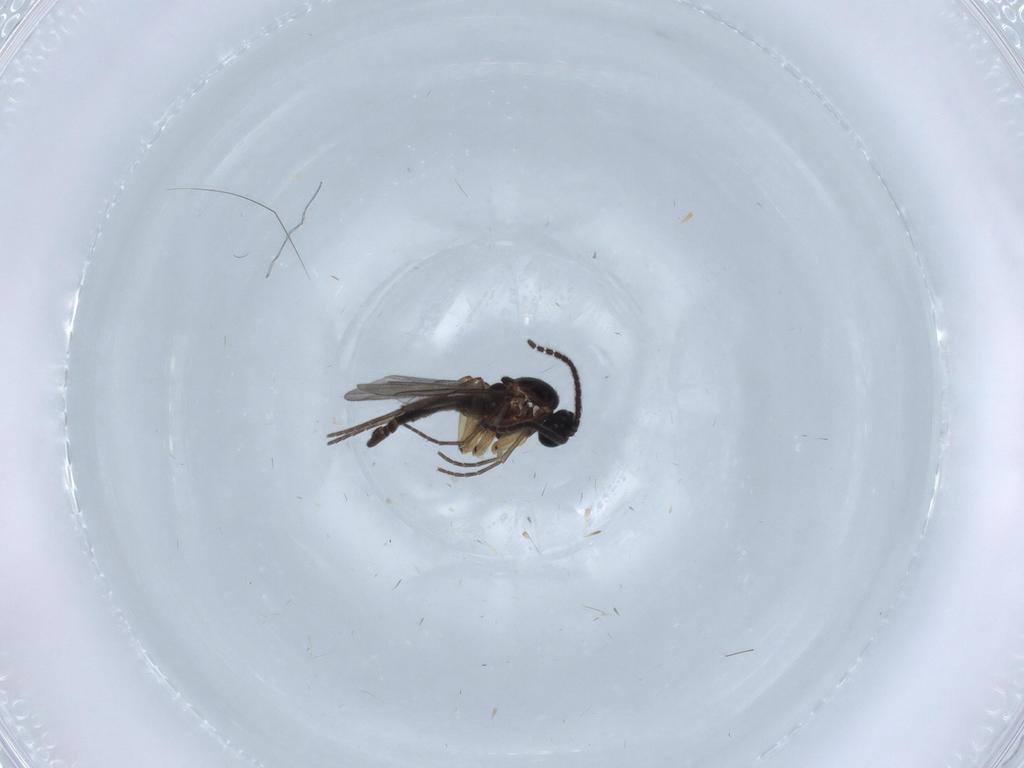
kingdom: Animalia
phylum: Arthropoda
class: Insecta
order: Diptera
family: Sciaridae
